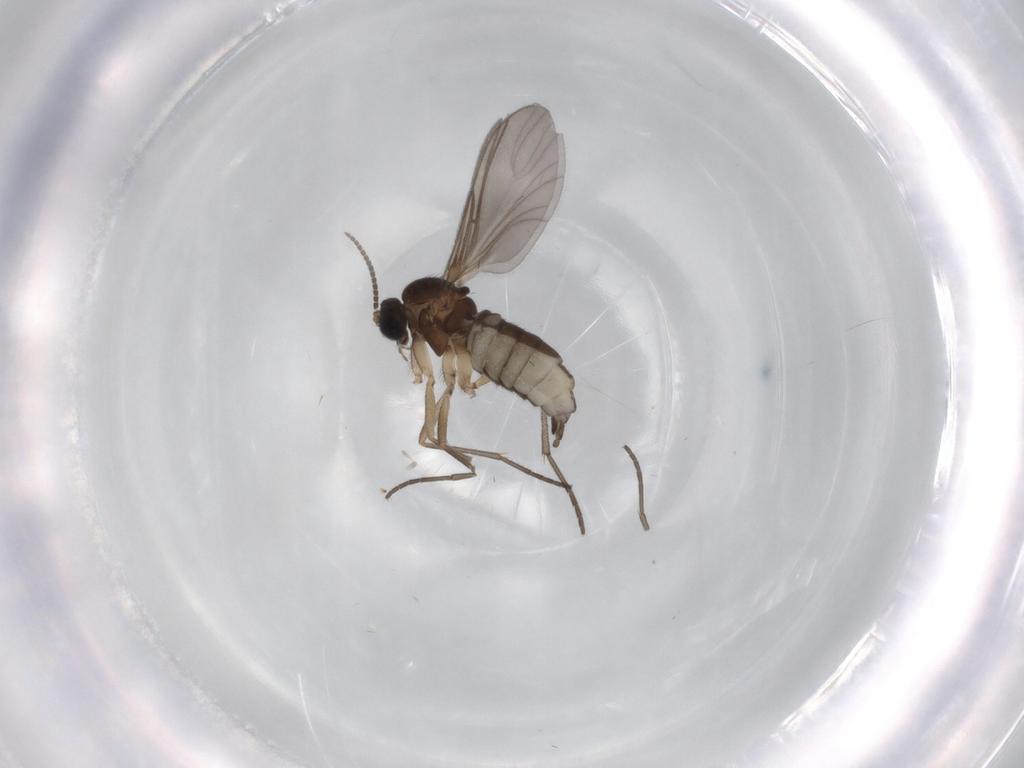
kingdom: Animalia
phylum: Arthropoda
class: Insecta
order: Diptera
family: Sciaridae
